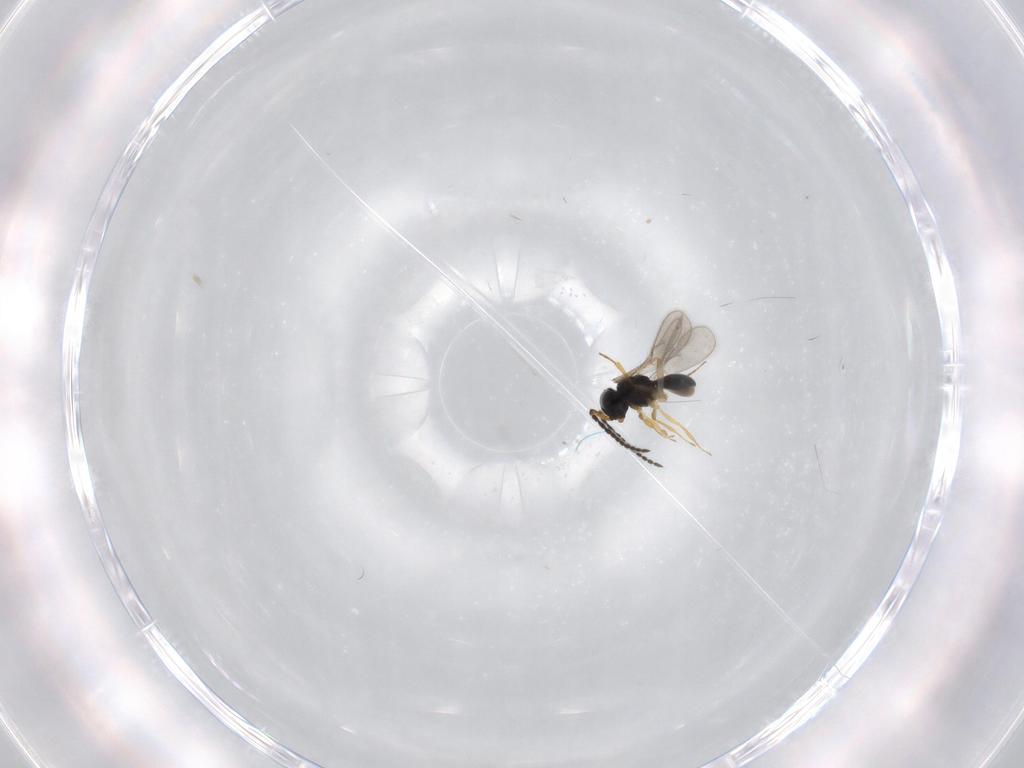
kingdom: Animalia
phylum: Arthropoda
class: Insecta
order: Hymenoptera
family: Scelionidae
